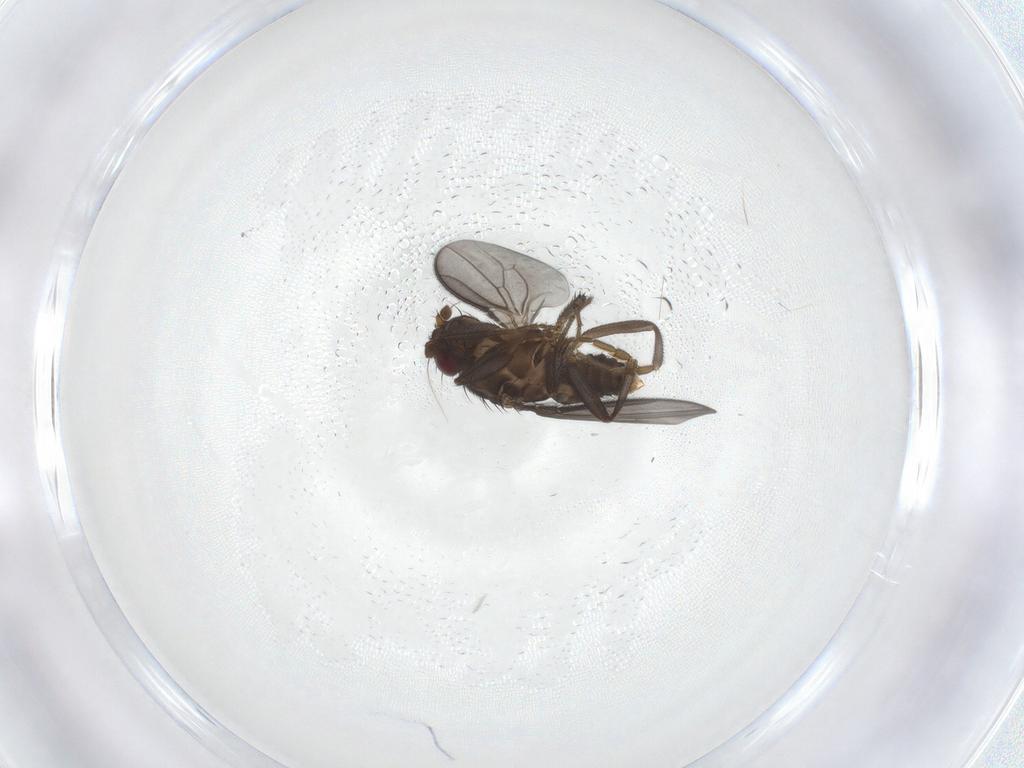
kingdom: Animalia
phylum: Arthropoda
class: Insecta
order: Diptera
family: Sphaeroceridae
